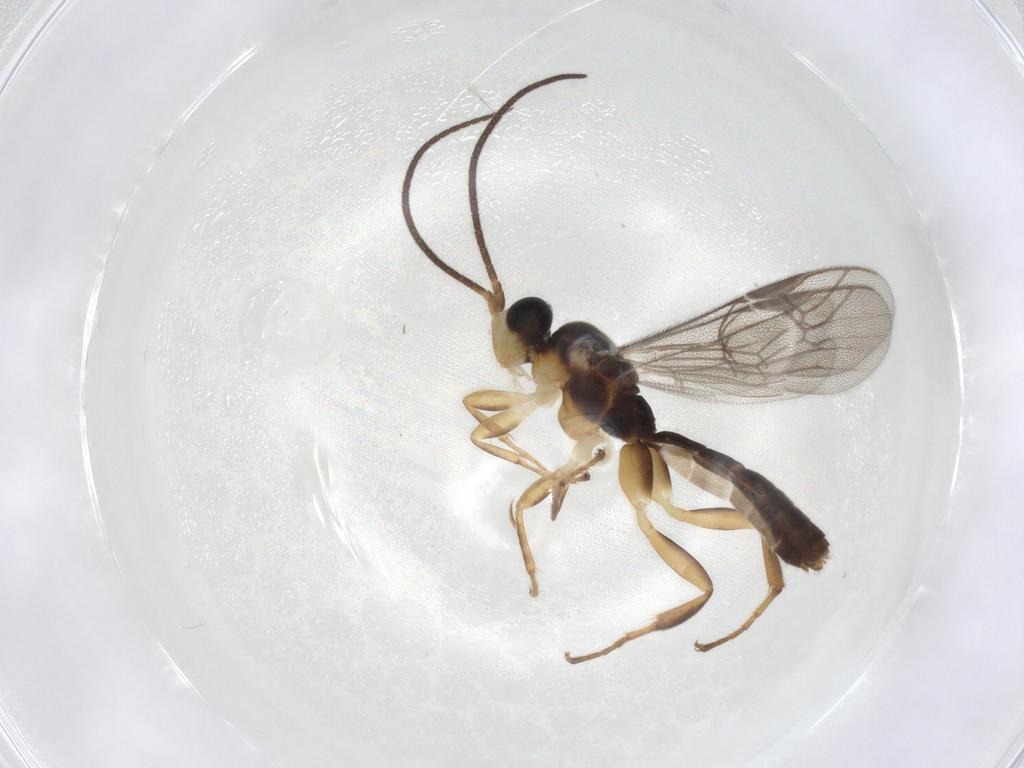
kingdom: Animalia
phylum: Arthropoda
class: Insecta
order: Hymenoptera
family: Ichneumonidae
